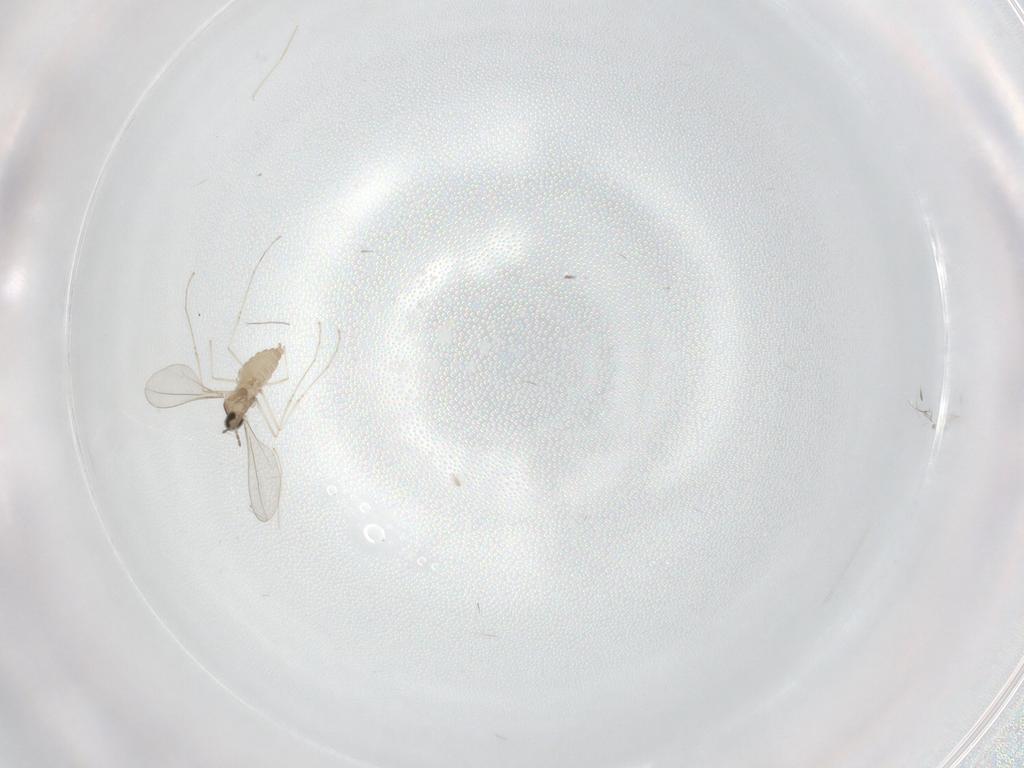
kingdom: Animalia
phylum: Arthropoda
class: Insecta
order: Diptera
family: Cecidomyiidae
